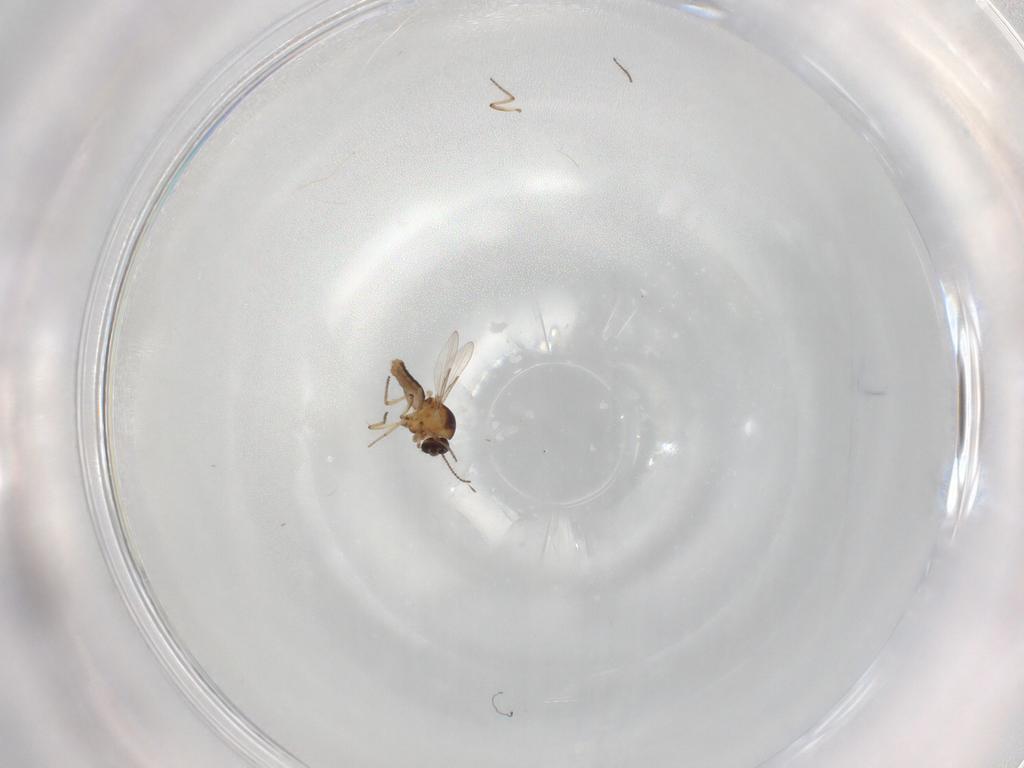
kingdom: Animalia
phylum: Arthropoda
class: Insecta
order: Diptera
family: Ceratopogonidae
